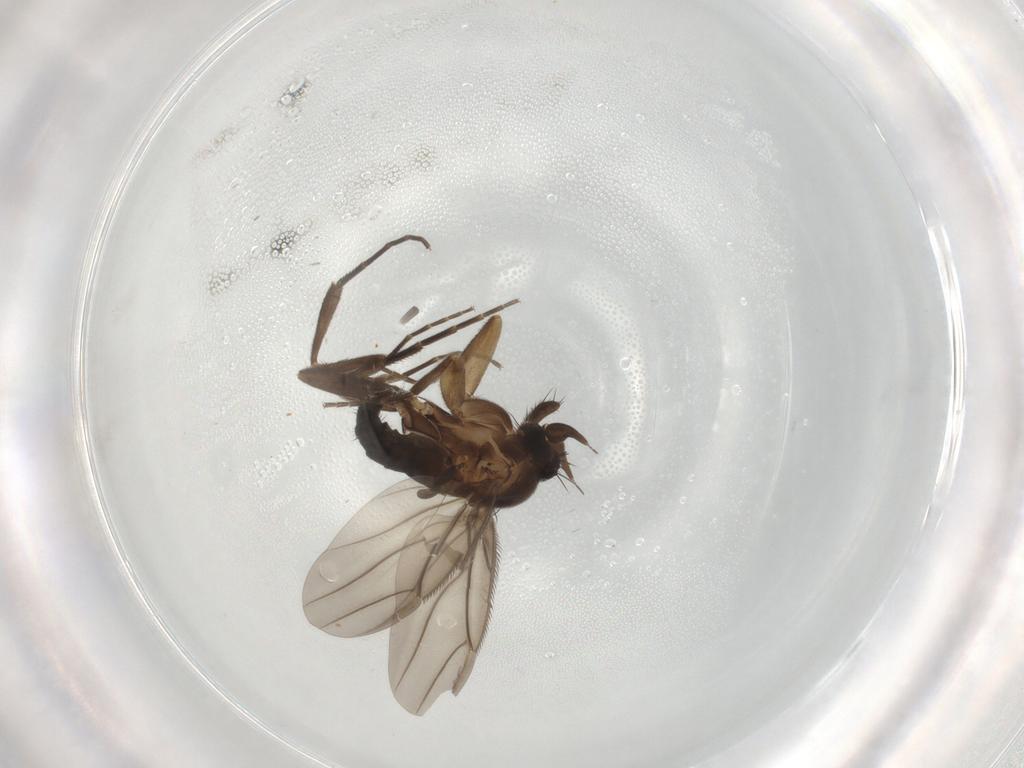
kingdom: Animalia
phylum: Arthropoda
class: Insecta
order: Diptera
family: Sciaridae
